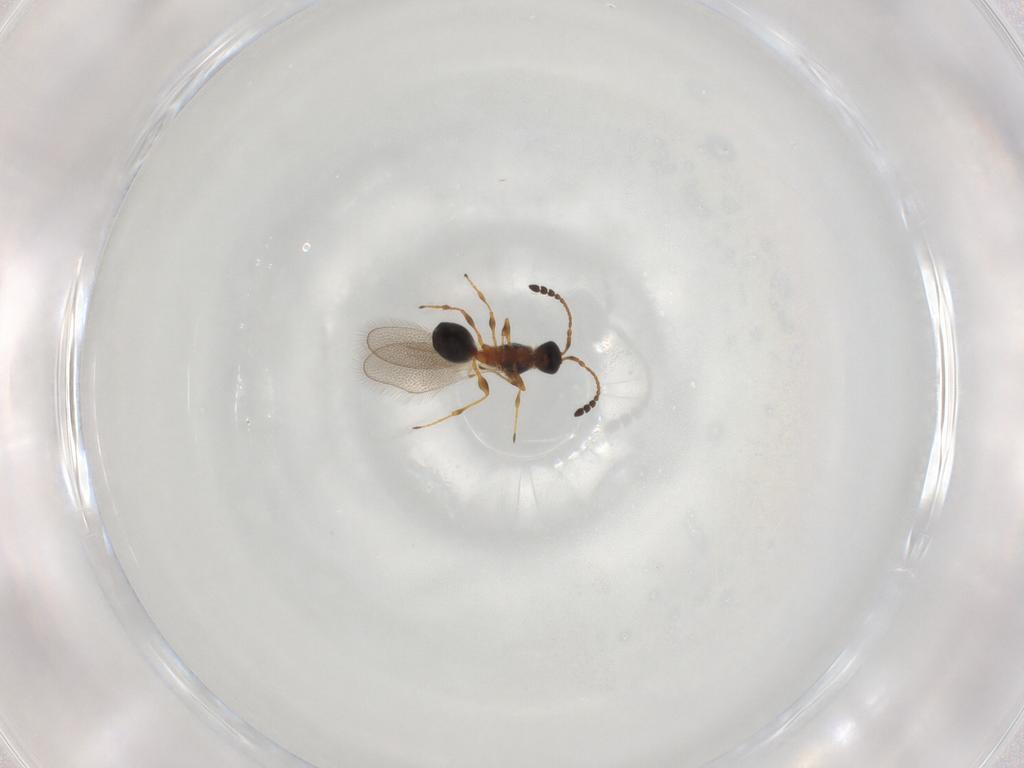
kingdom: Animalia
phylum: Arthropoda
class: Insecta
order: Hymenoptera
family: Diapriidae
